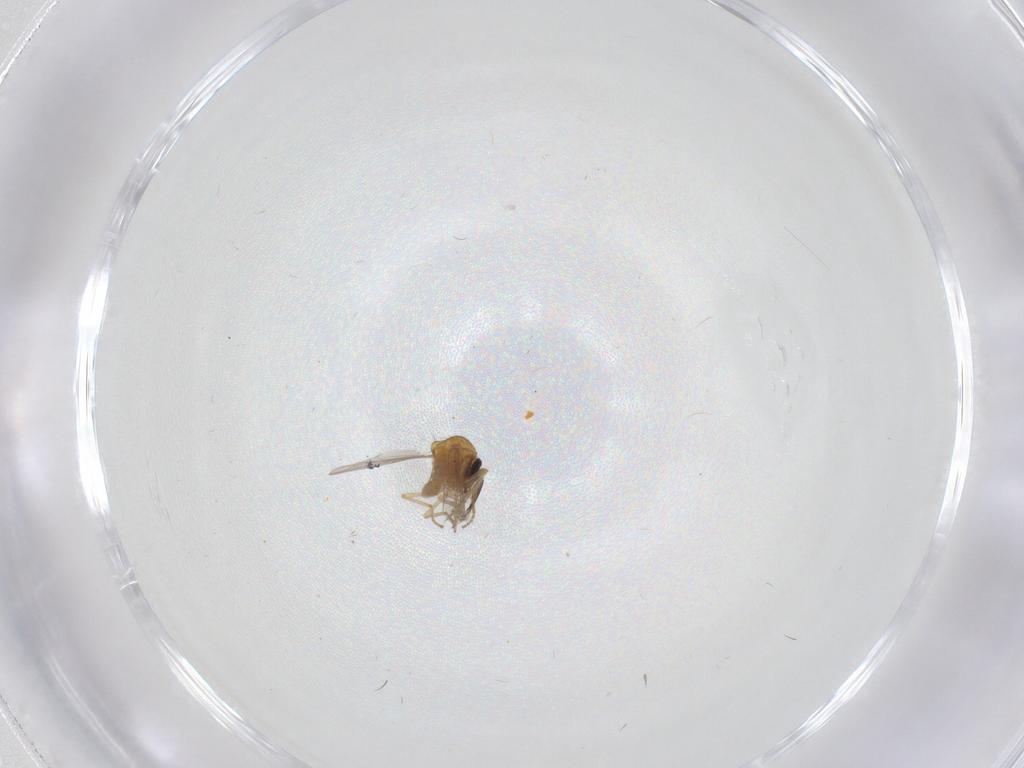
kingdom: Animalia
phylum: Arthropoda
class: Insecta
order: Diptera
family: Ceratopogonidae
